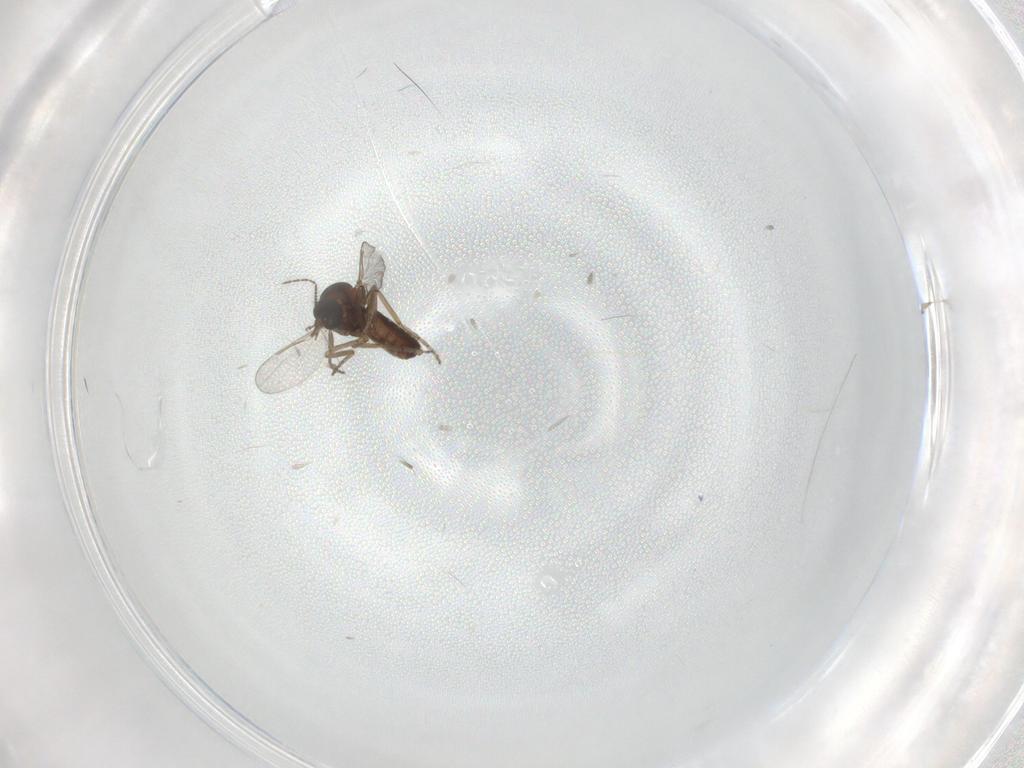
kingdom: Animalia
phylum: Arthropoda
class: Insecta
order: Diptera
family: Ceratopogonidae
